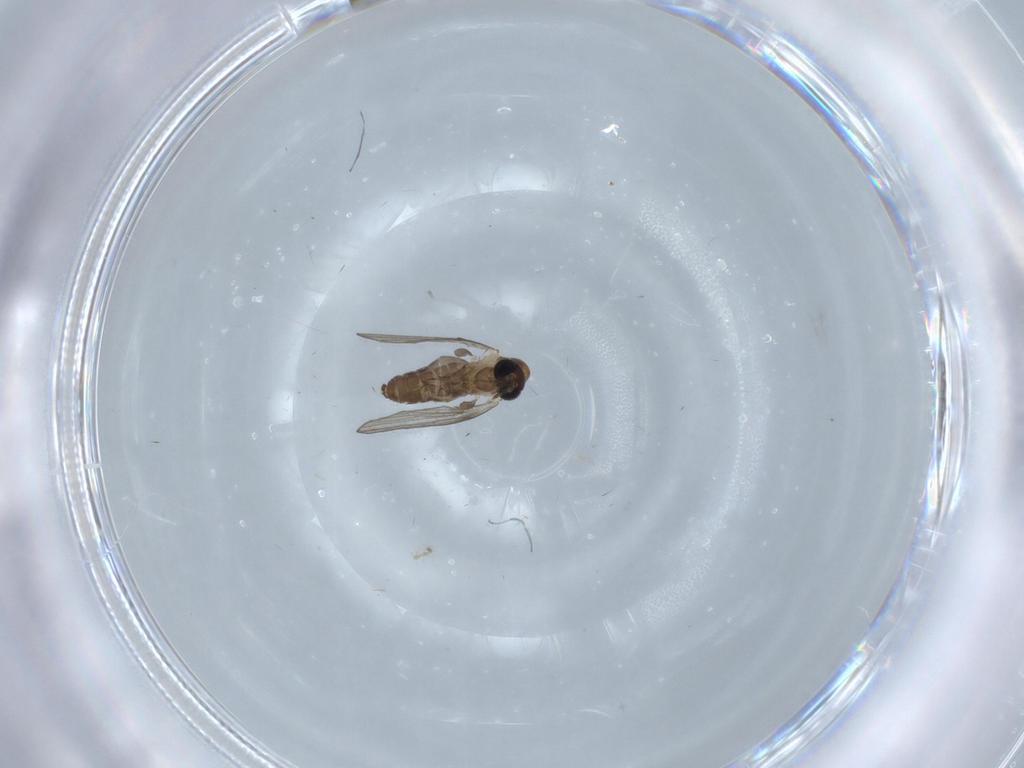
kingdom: Animalia
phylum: Arthropoda
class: Insecta
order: Diptera
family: Psychodidae
